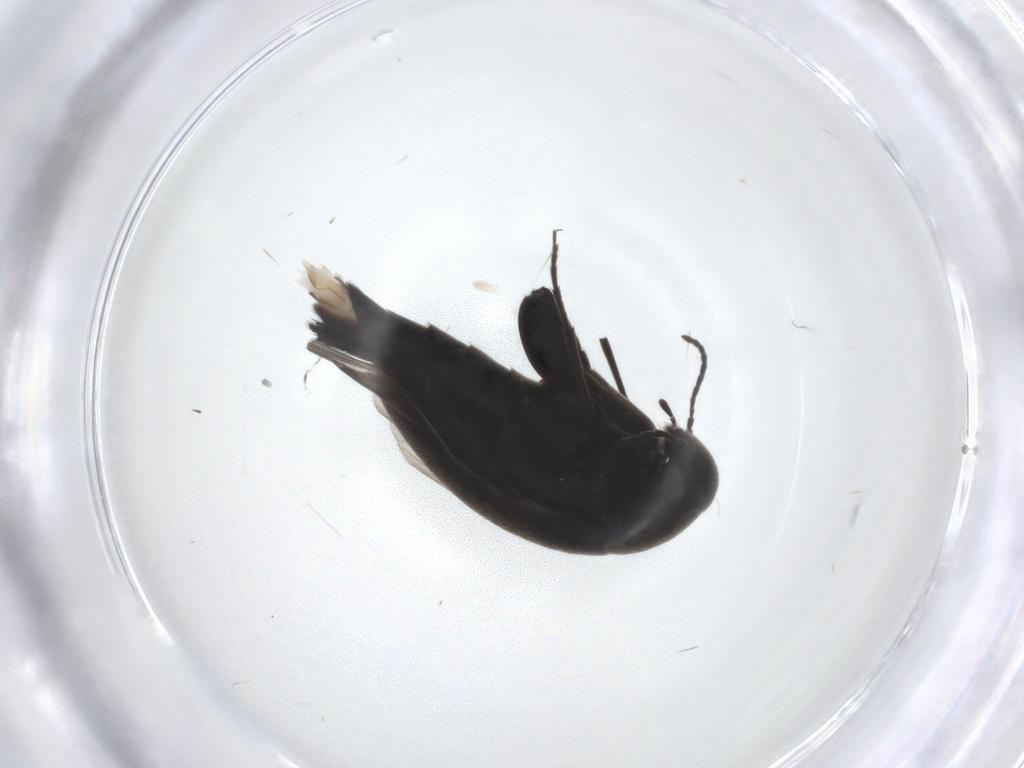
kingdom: Animalia
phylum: Arthropoda
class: Insecta
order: Coleoptera
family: Mordellidae
